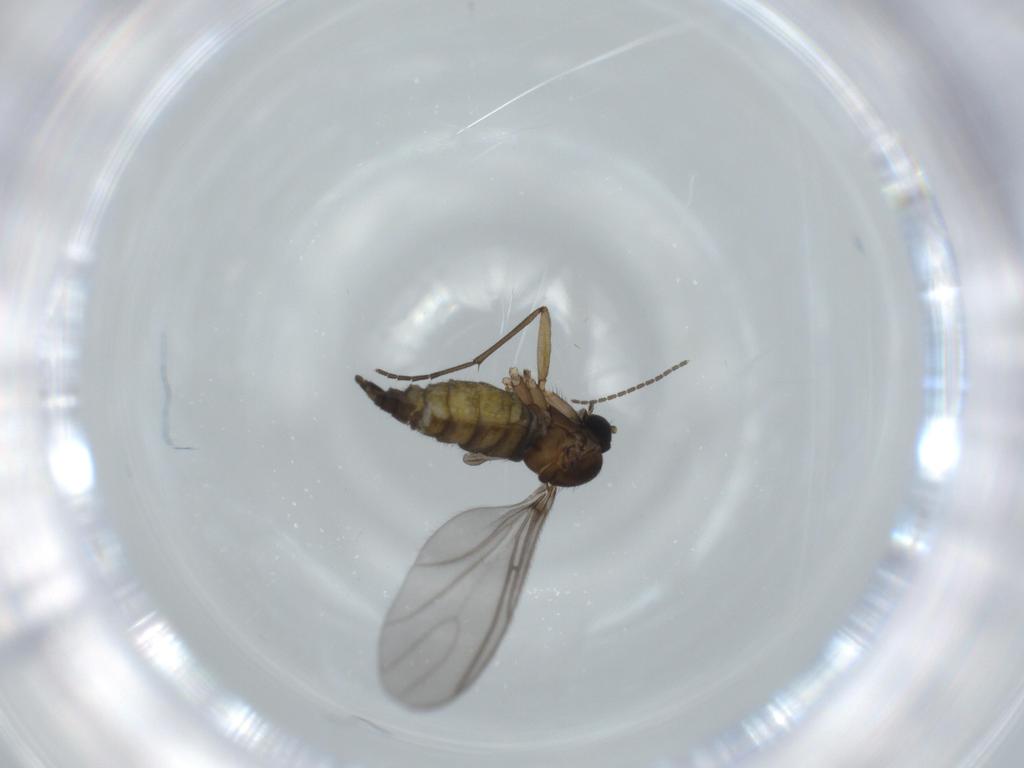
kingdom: Animalia
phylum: Arthropoda
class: Insecta
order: Diptera
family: Sciaridae
